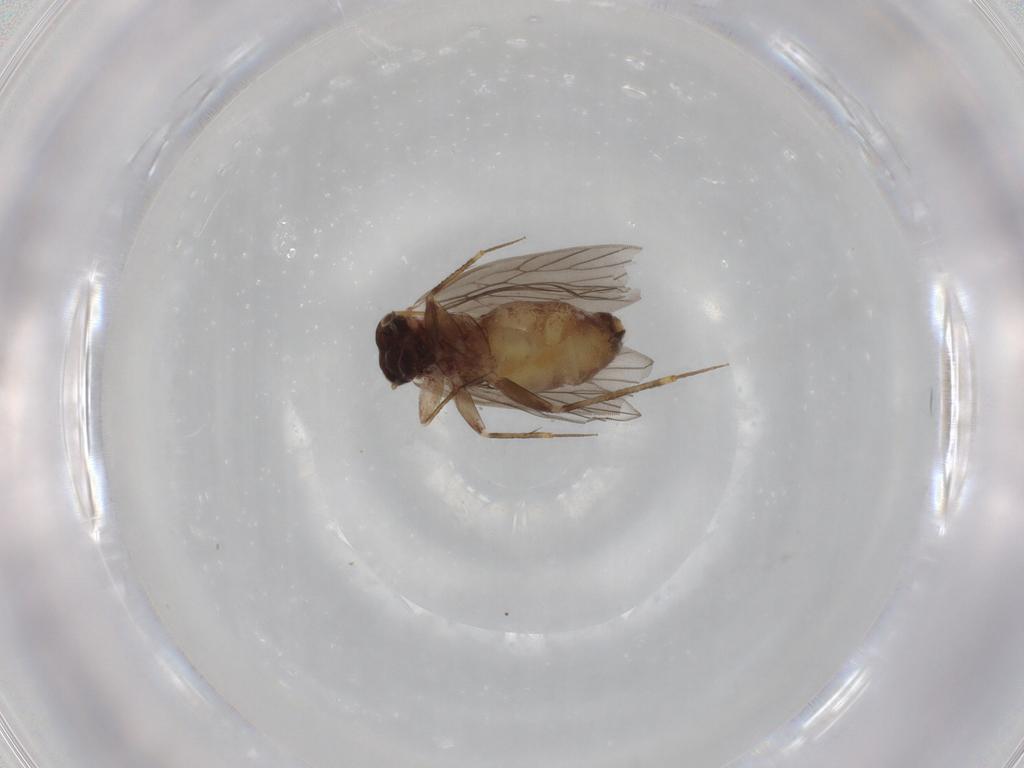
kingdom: Animalia
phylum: Arthropoda
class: Insecta
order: Psocodea
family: Lepidopsocidae
